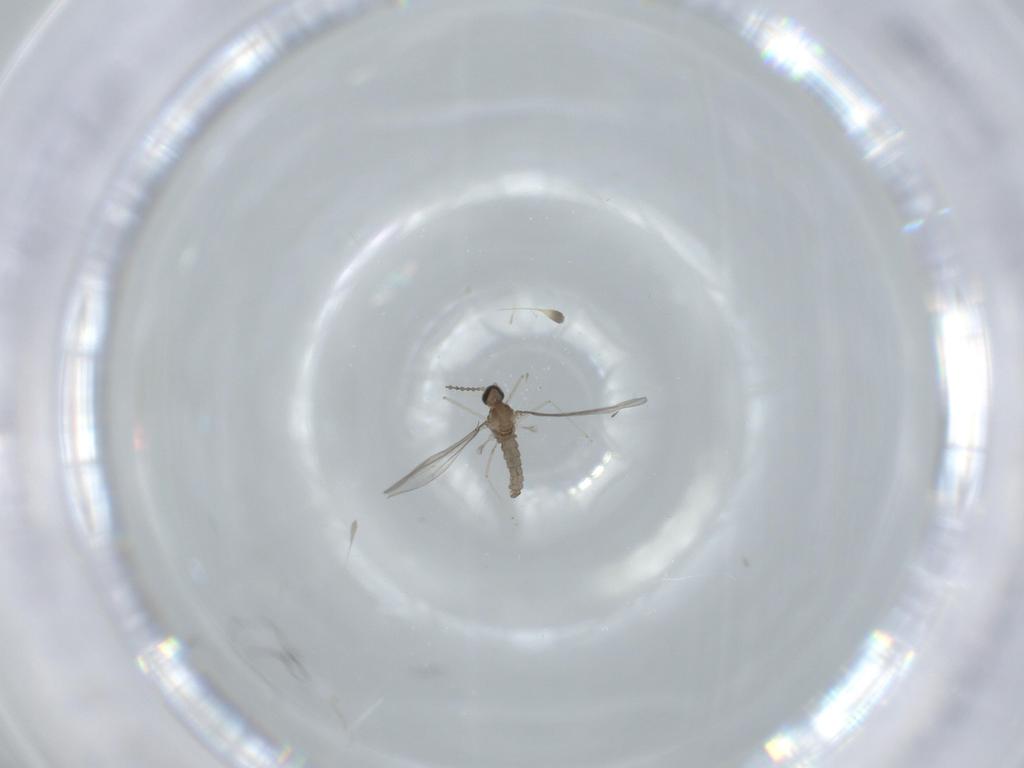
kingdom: Animalia
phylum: Arthropoda
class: Insecta
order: Diptera
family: Cecidomyiidae
